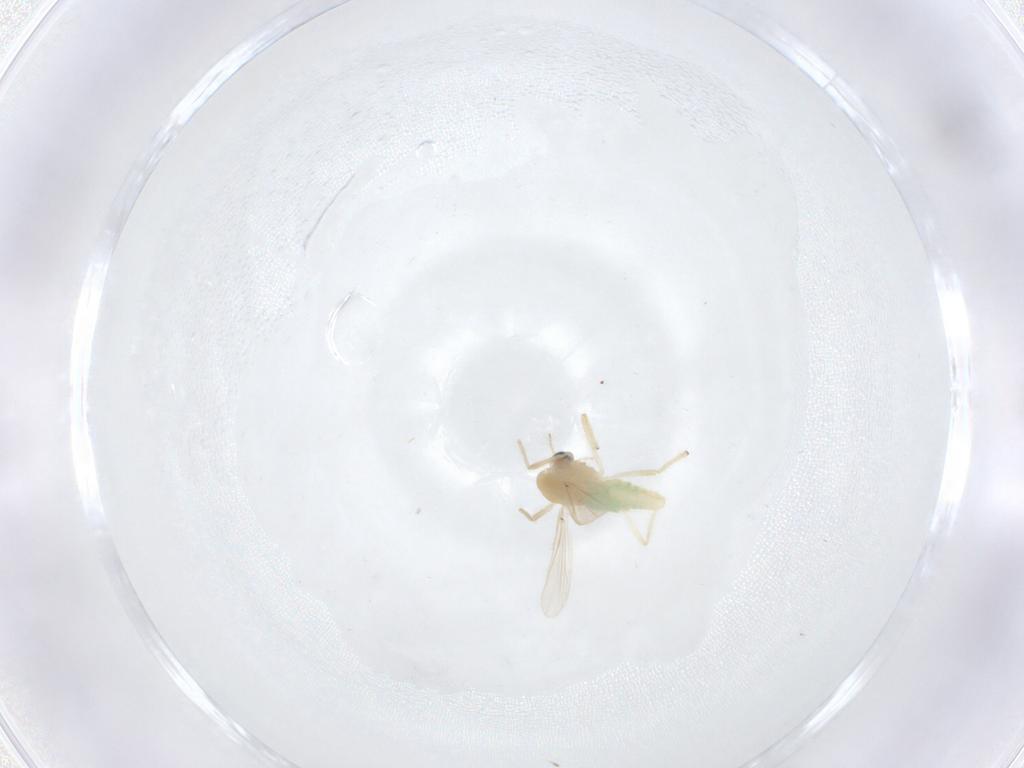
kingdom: Animalia
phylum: Arthropoda
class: Insecta
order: Diptera
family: Chironomidae
